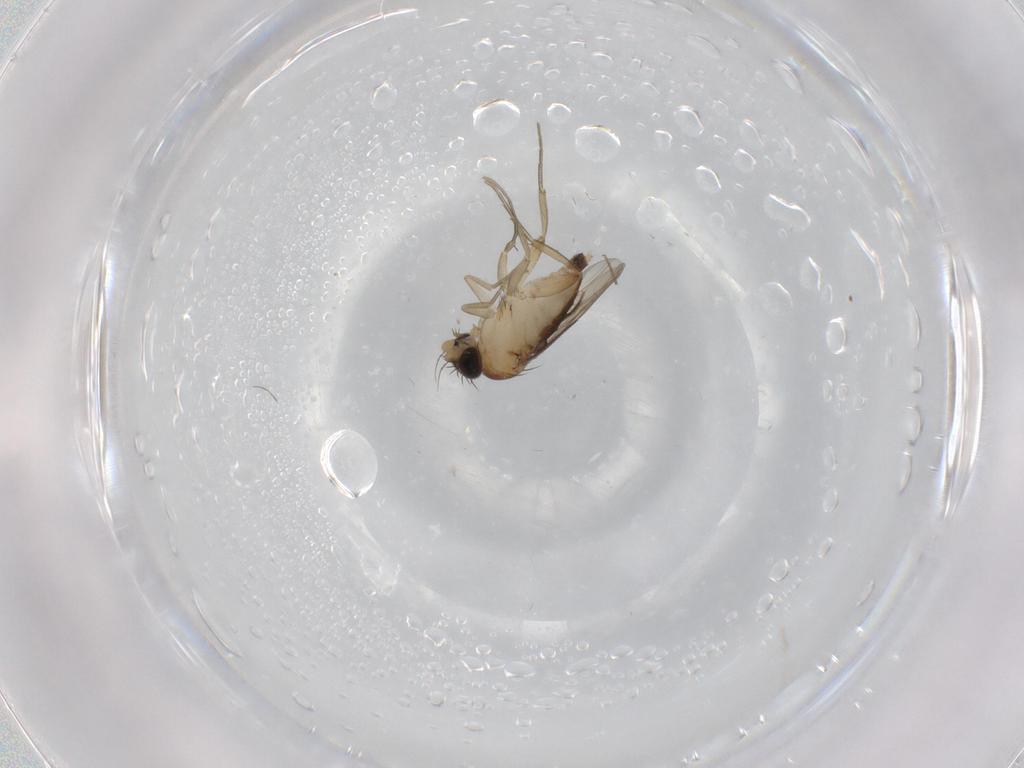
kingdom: Animalia
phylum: Arthropoda
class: Insecta
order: Diptera
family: Phoridae
